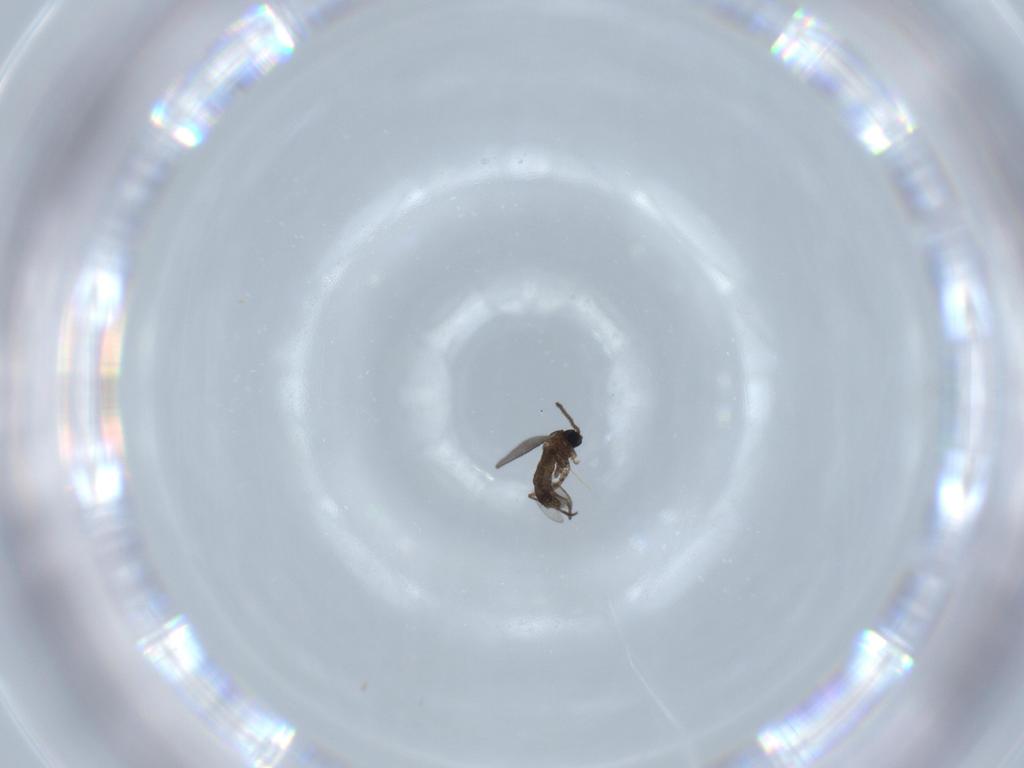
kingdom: Animalia
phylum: Arthropoda
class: Insecta
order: Diptera
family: Sciaridae
